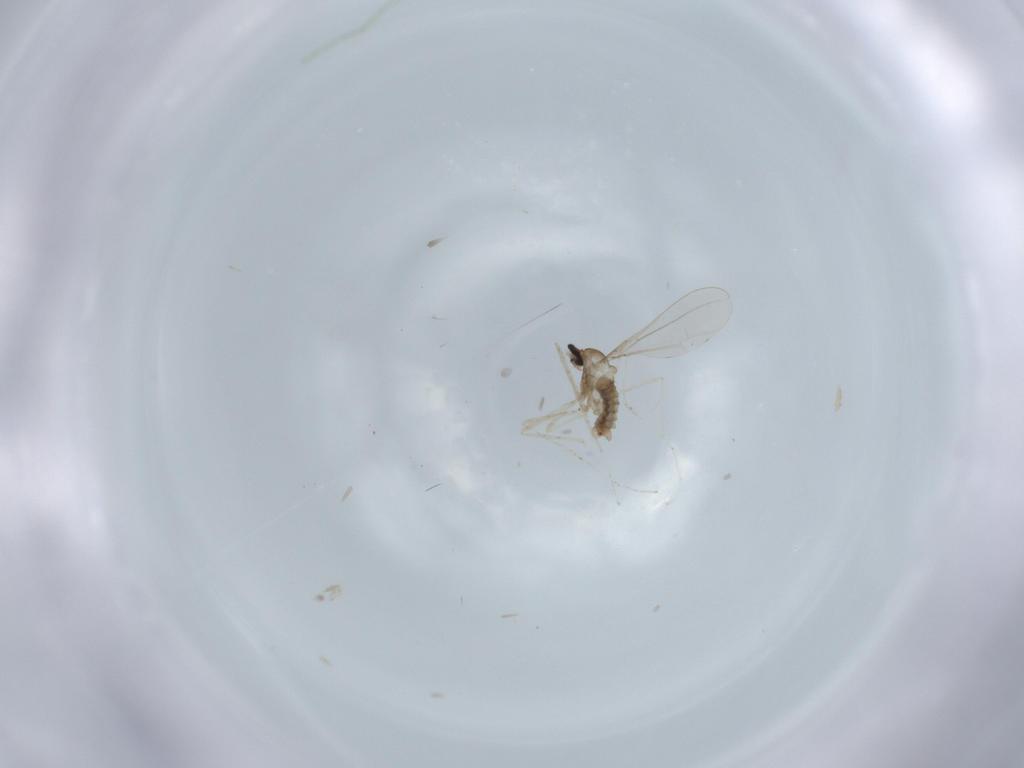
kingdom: Animalia
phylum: Arthropoda
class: Insecta
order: Diptera
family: Cecidomyiidae
